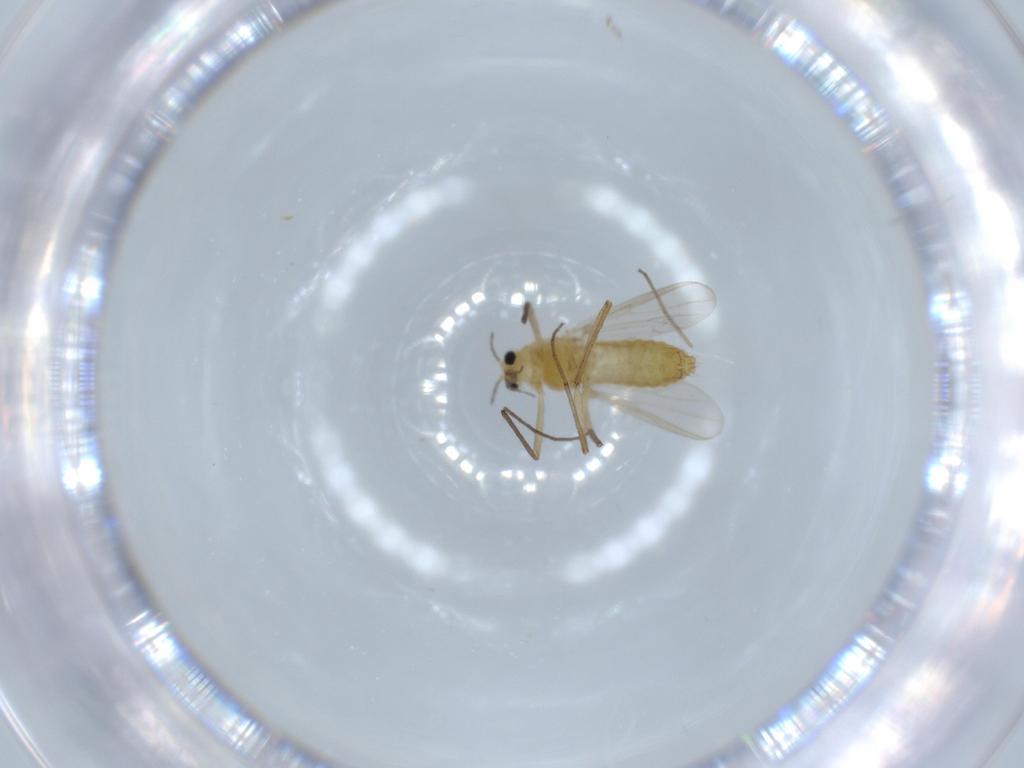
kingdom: Animalia
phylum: Arthropoda
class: Insecta
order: Diptera
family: Chironomidae
